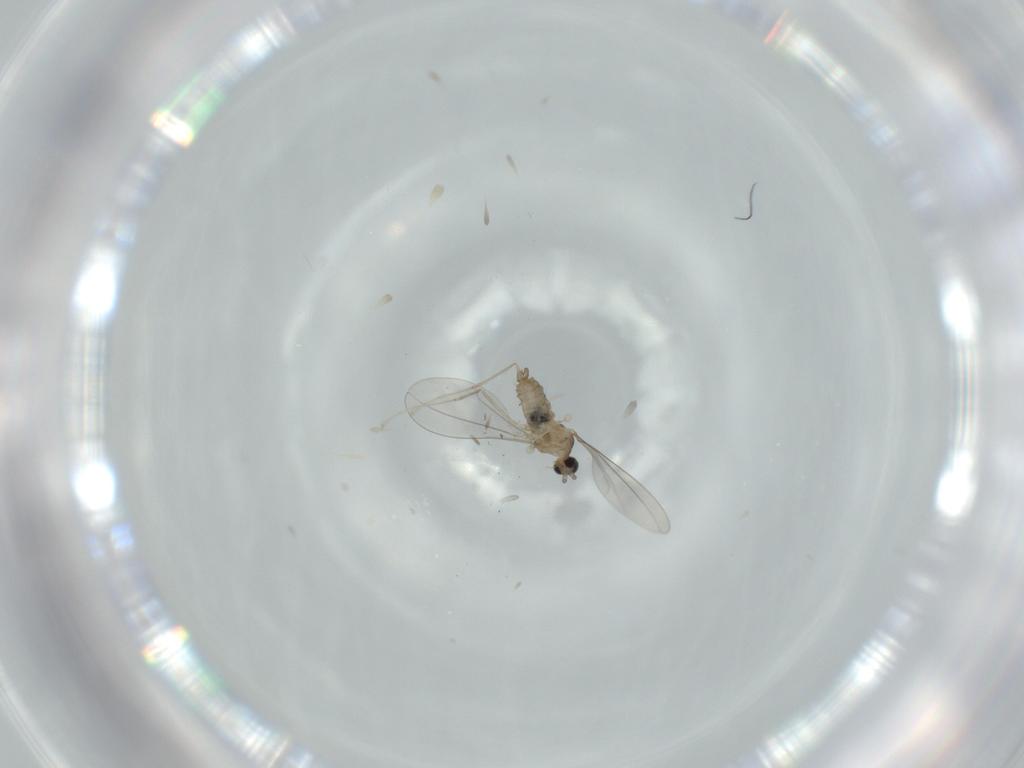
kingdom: Animalia
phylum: Arthropoda
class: Insecta
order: Diptera
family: Cecidomyiidae
